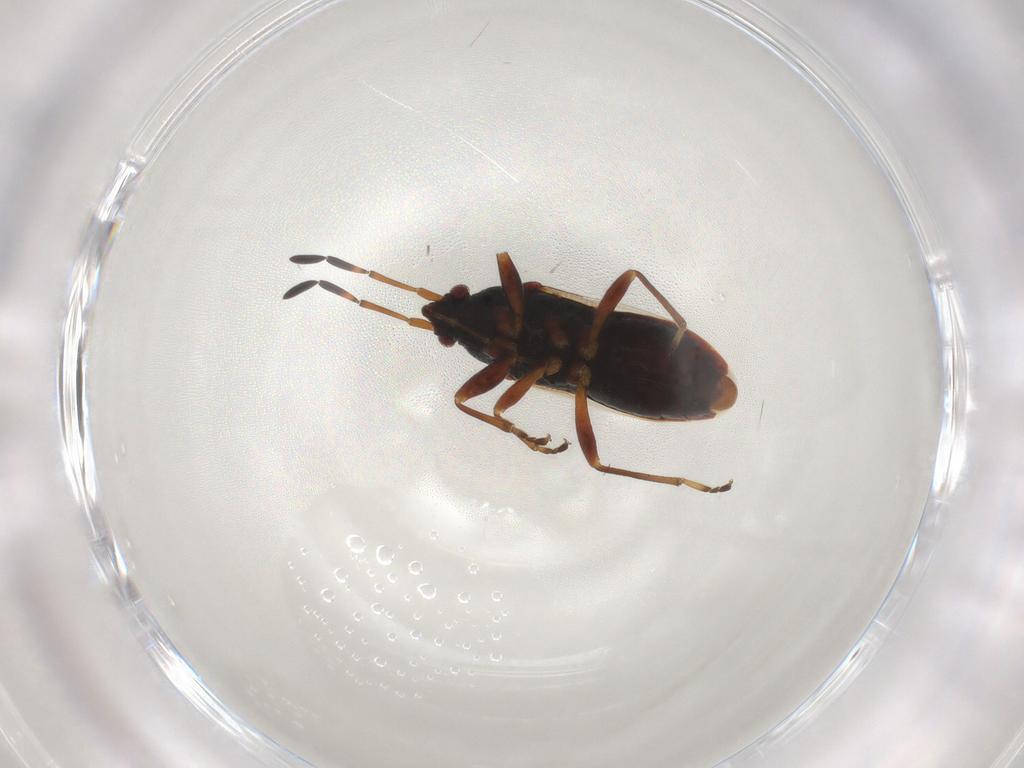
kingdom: Animalia
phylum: Arthropoda
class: Insecta
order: Hemiptera
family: Rhyparochromidae
